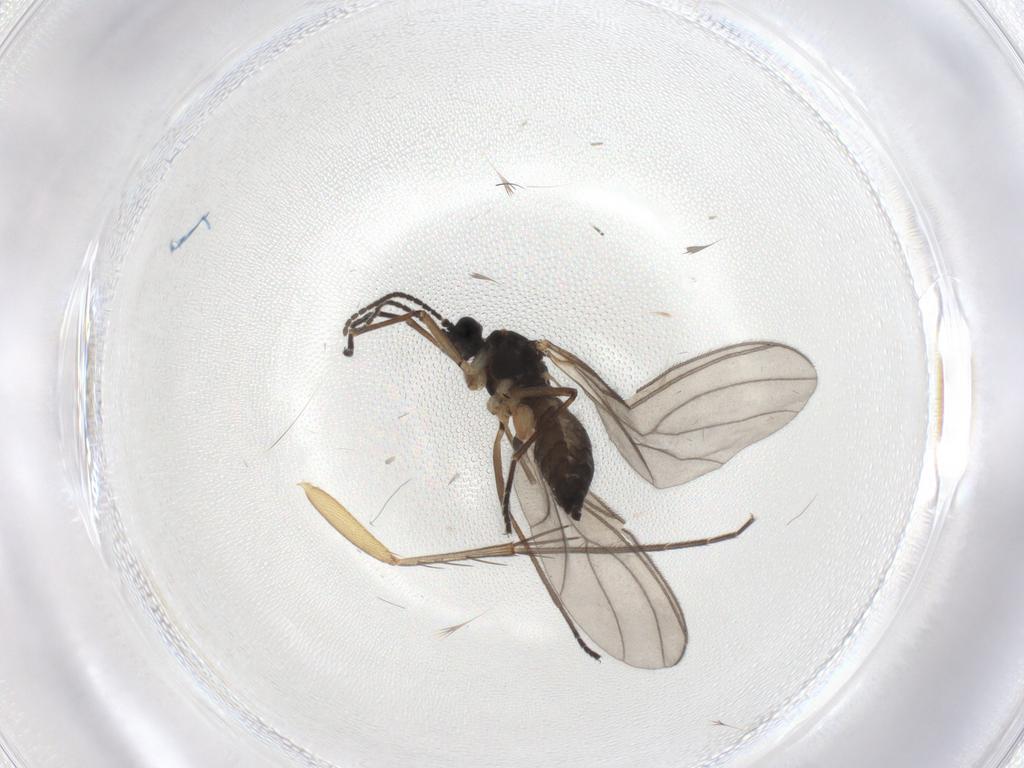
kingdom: Animalia
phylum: Arthropoda
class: Insecta
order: Diptera
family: Sciaridae
